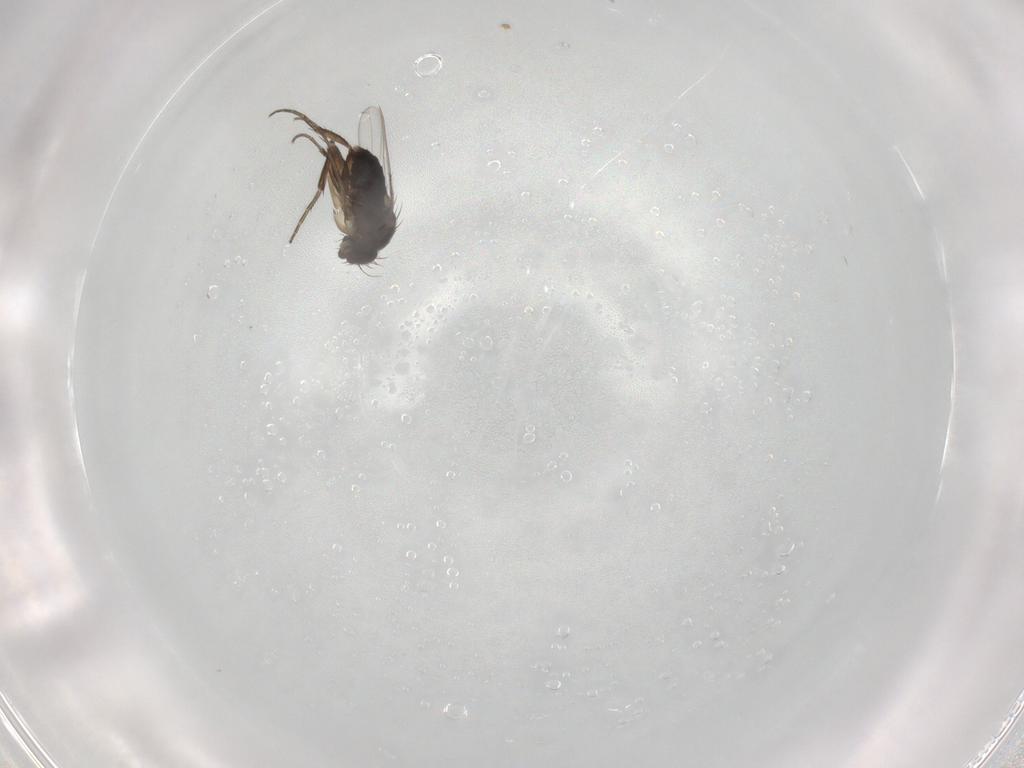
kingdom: Animalia
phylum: Arthropoda
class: Insecta
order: Diptera
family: Phoridae
